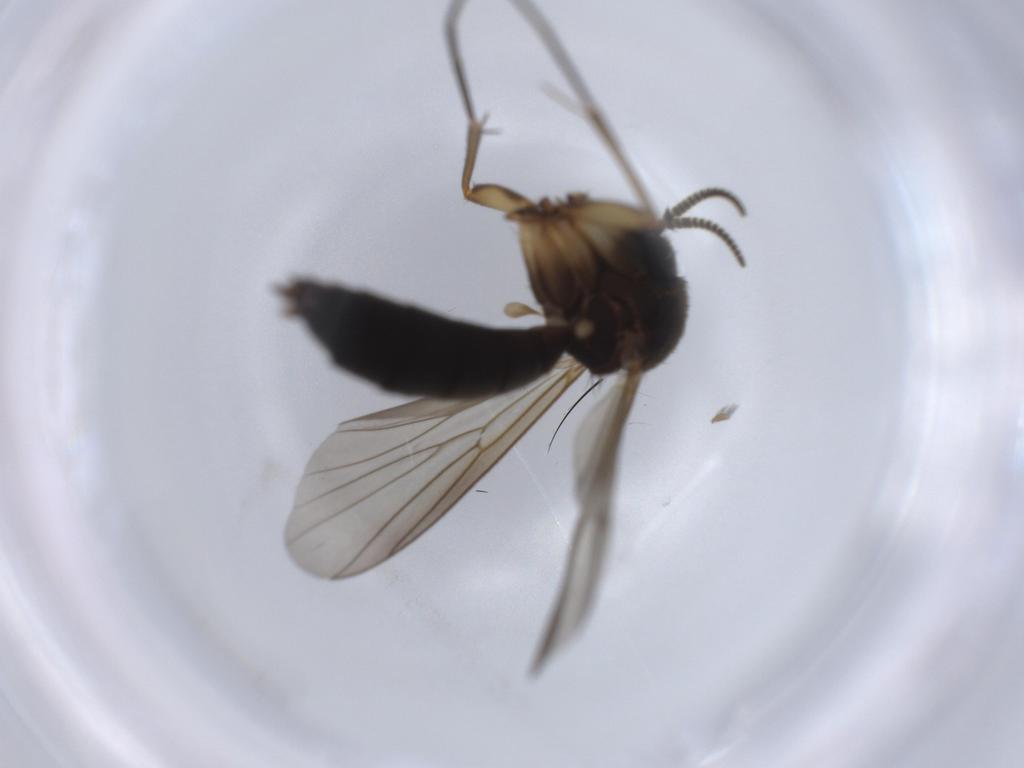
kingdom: Animalia
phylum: Arthropoda
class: Insecta
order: Diptera
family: Mycetophilidae
